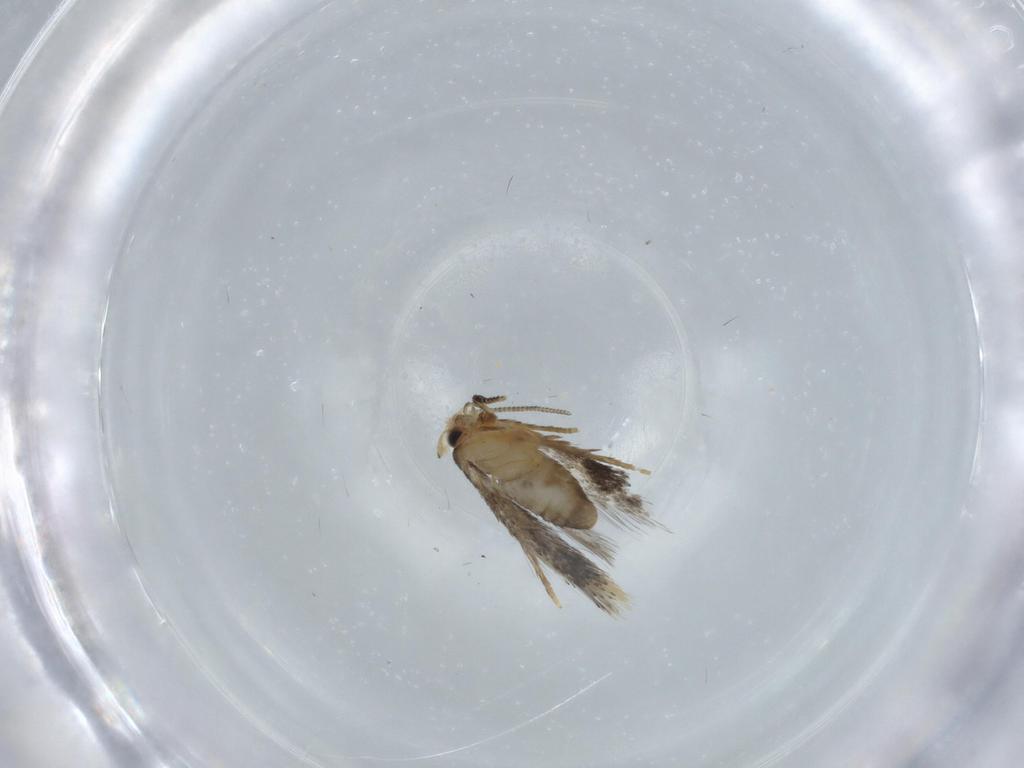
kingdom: Animalia
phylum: Arthropoda
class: Insecta
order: Lepidoptera
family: Nepticulidae
